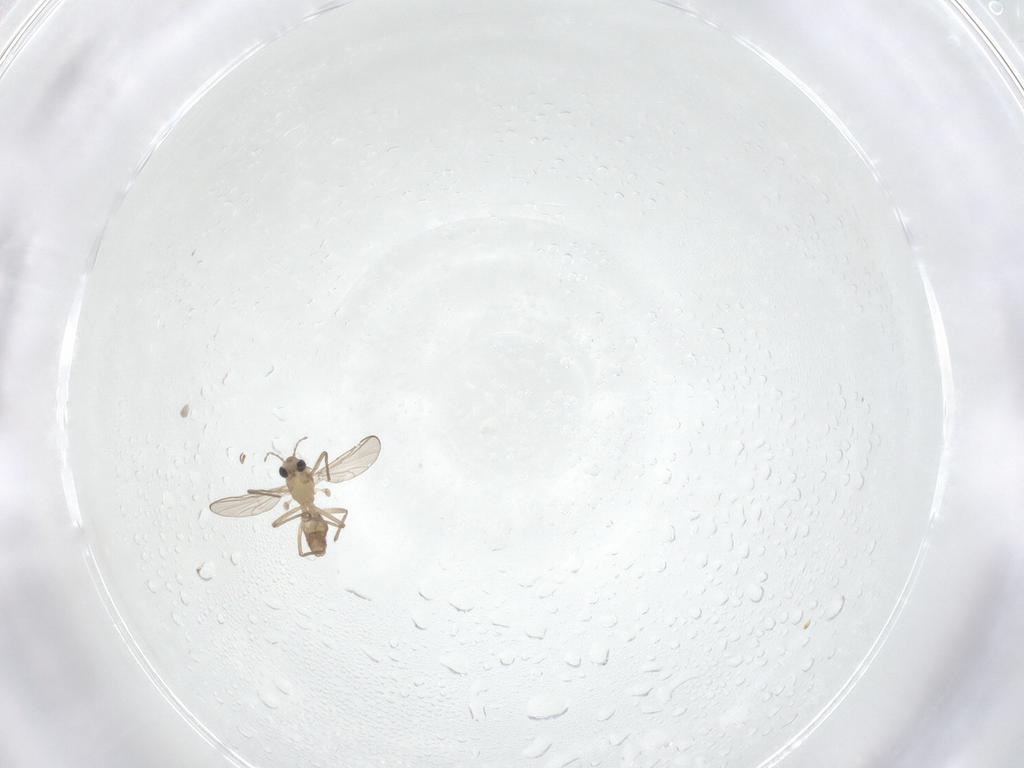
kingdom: Animalia
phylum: Arthropoda
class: Insecta
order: Diptera
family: Chironomidae
